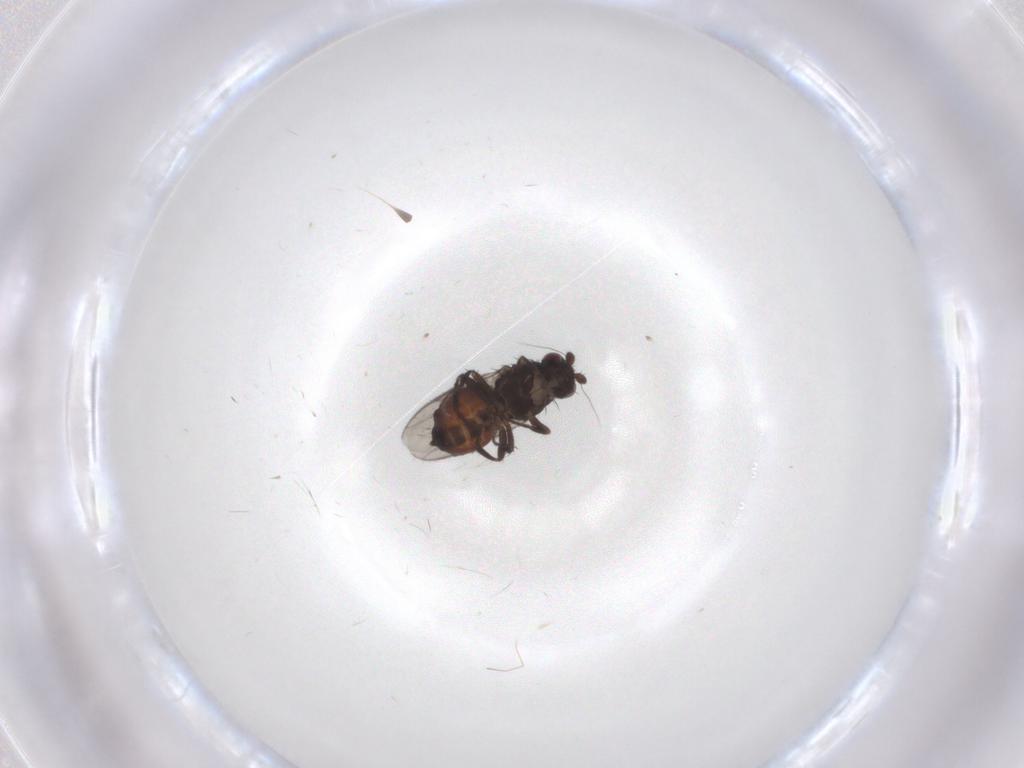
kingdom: Animalia
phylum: Arthropoda
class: Insecta
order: Diptera
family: Sphaeroceridae
